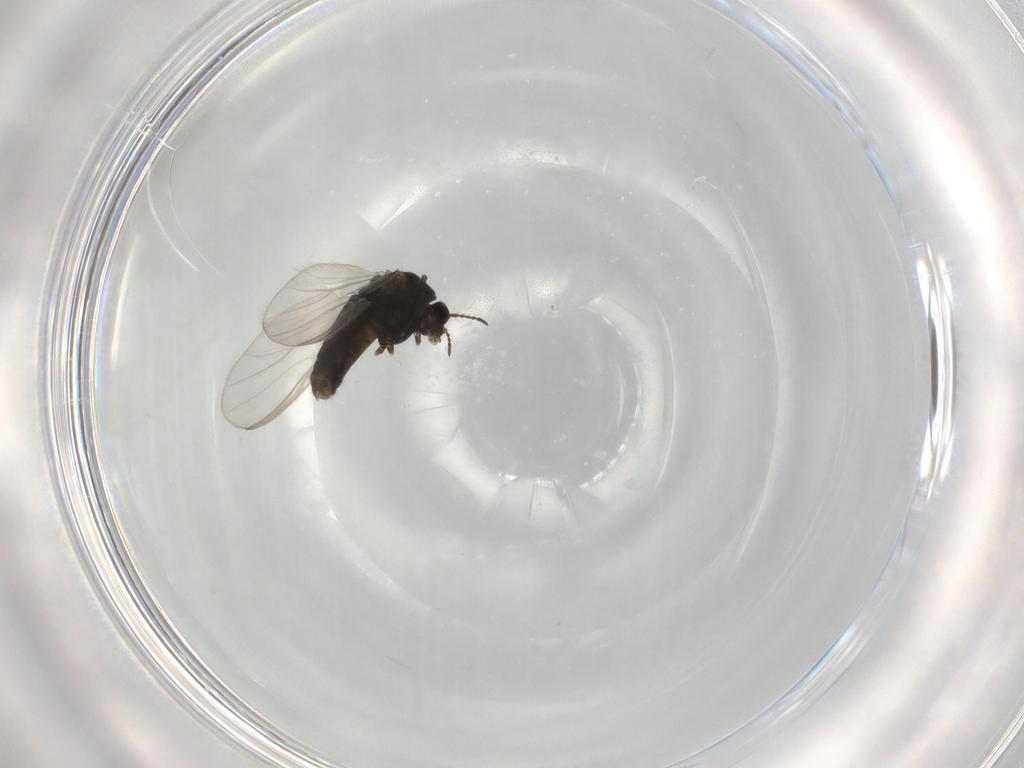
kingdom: Animalia
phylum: Arthropoda
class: Insecta
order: Diptera
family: Chironomidae
